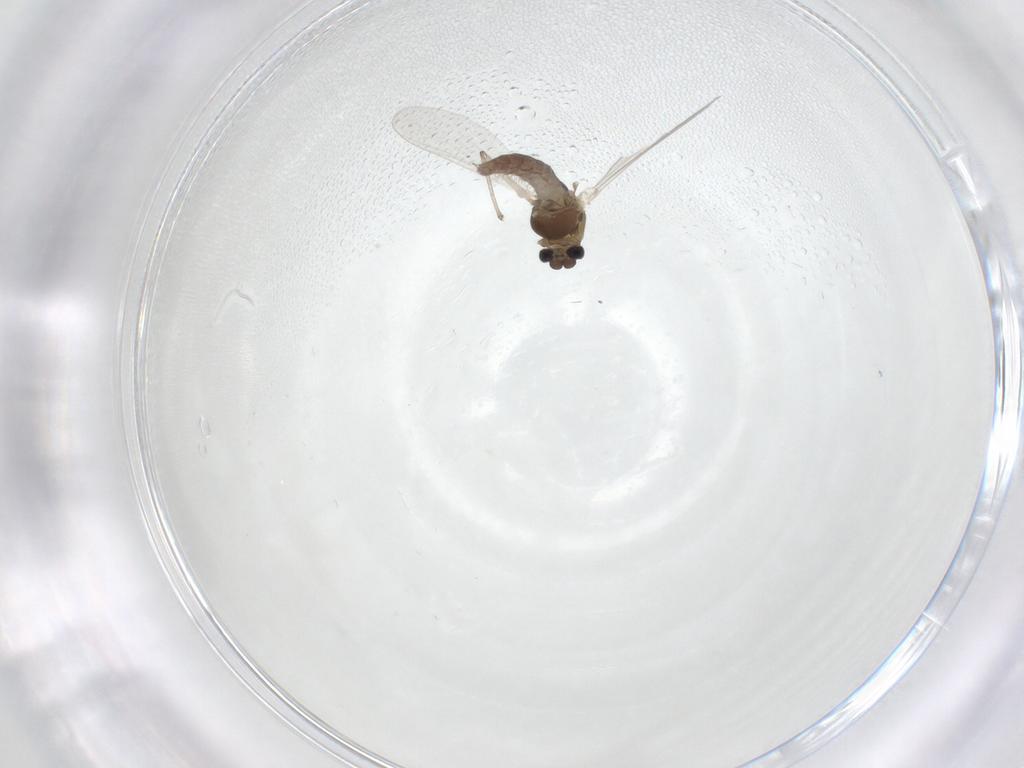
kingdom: Animalia
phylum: Arthropoda
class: Insecta
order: Diptera
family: Chironomidae
